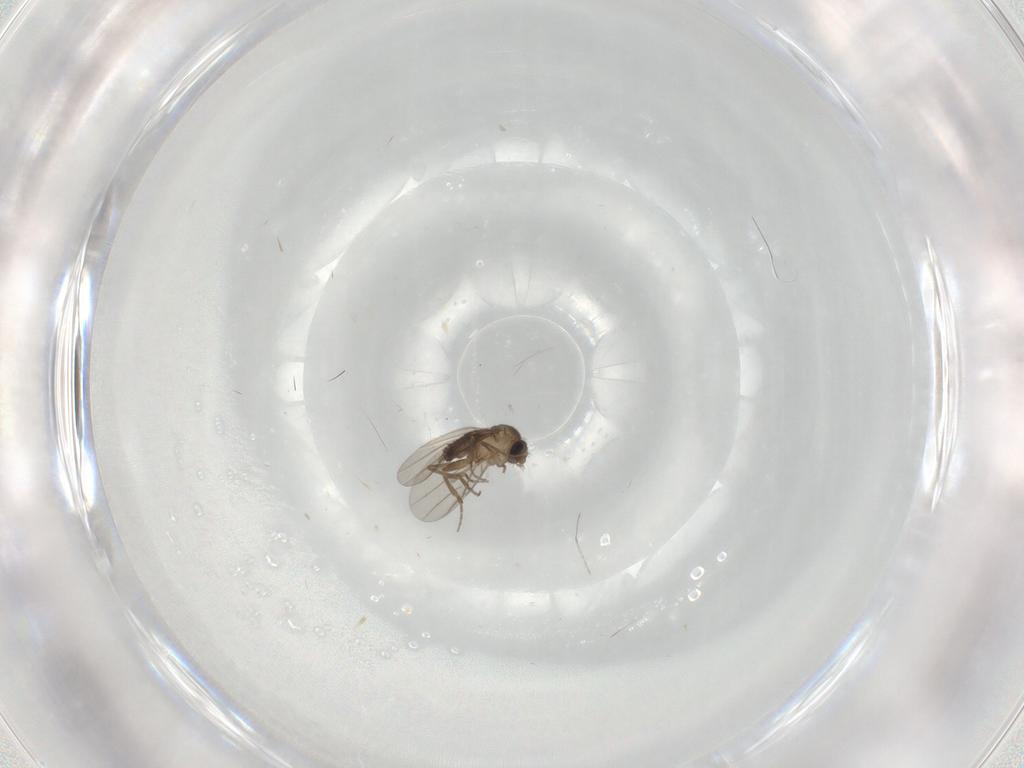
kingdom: Animalia
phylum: Arthropoda
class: Insecta
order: Diptera
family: Phoridae
